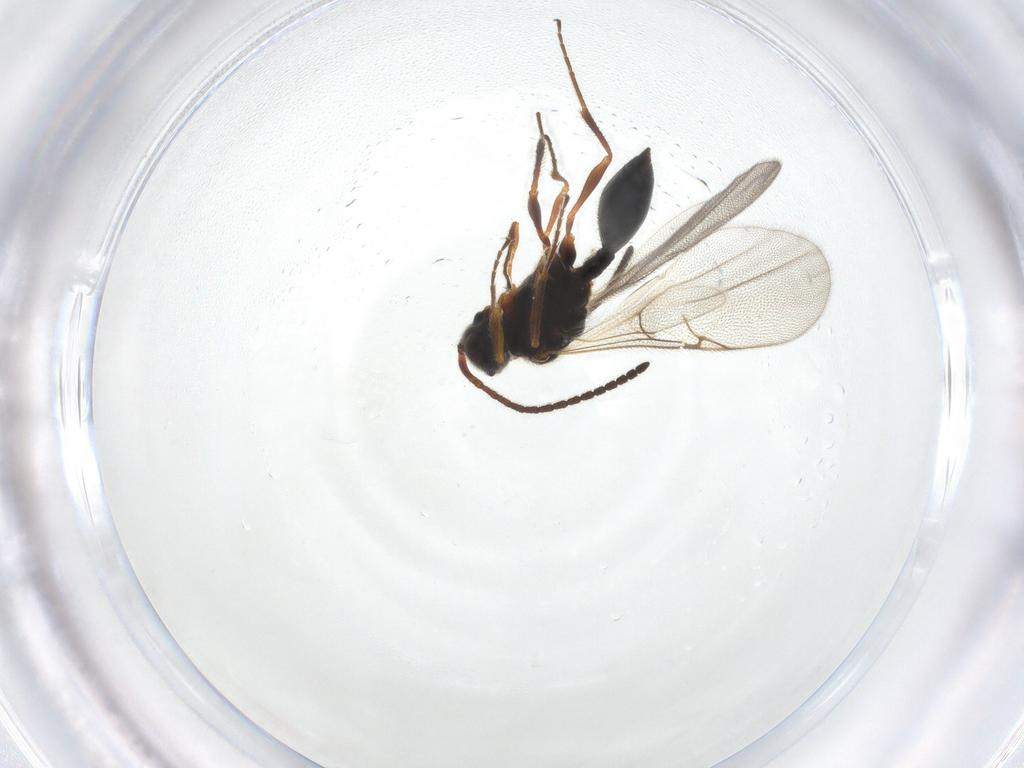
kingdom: Animalia
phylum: Arthropoda
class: Insecta
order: Hymenoptera
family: Diapriidae
